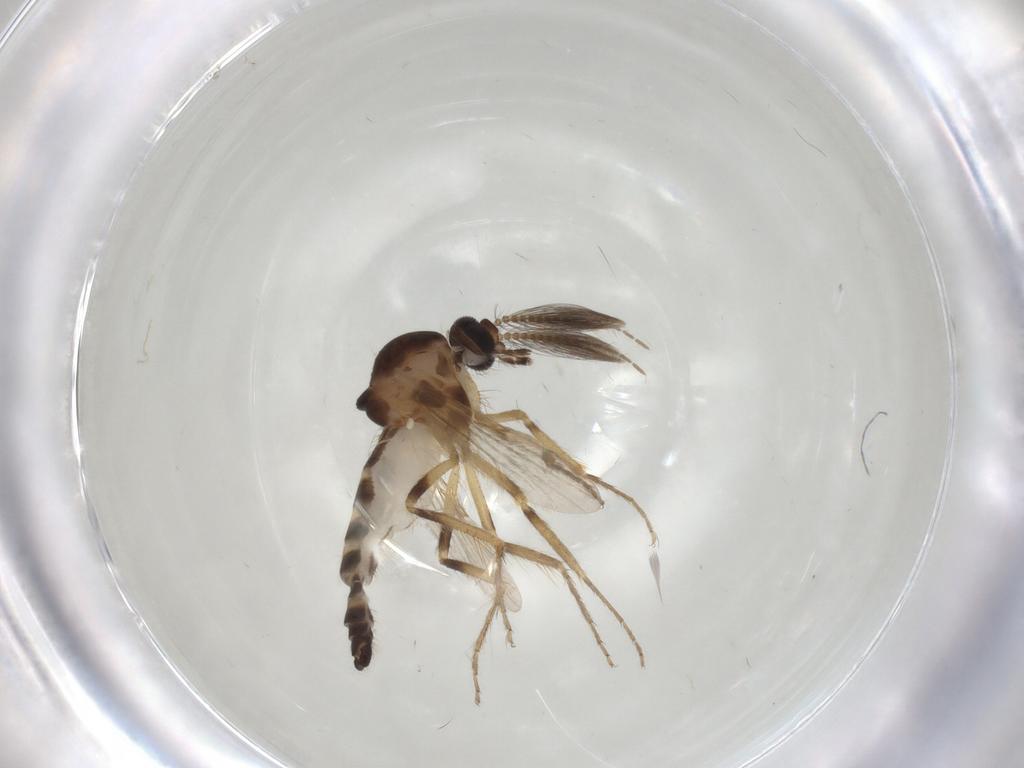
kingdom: Animalia
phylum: Arthropoda
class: Insecta
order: Diptera
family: Ceratopogonidae
